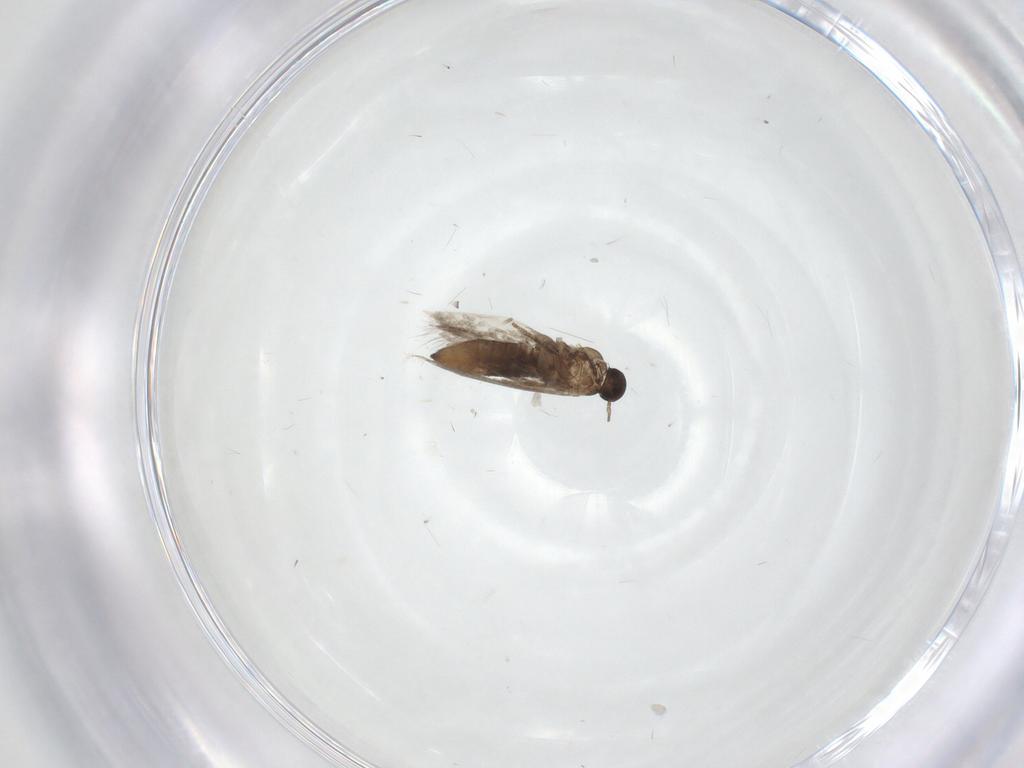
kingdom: Animalia
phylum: Arthropoda
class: Insecta
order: Lepidoptera
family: Heliozelidae
